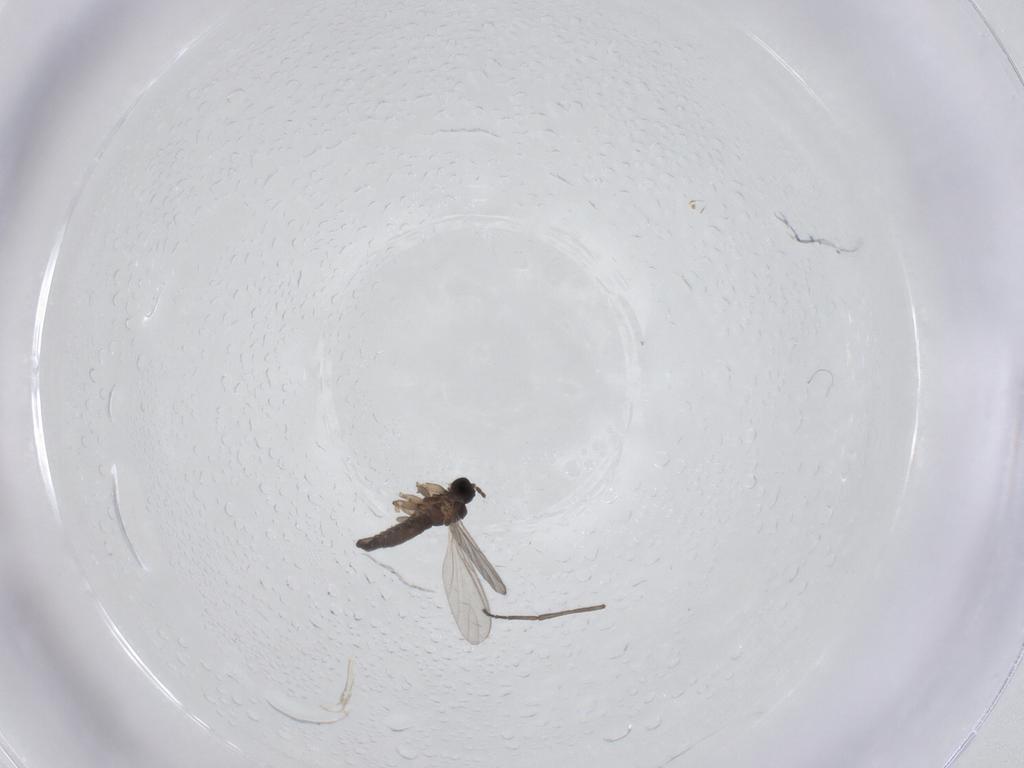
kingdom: Animalia
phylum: Arthropoda
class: Insecta
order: Diptera
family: Sciaridae
